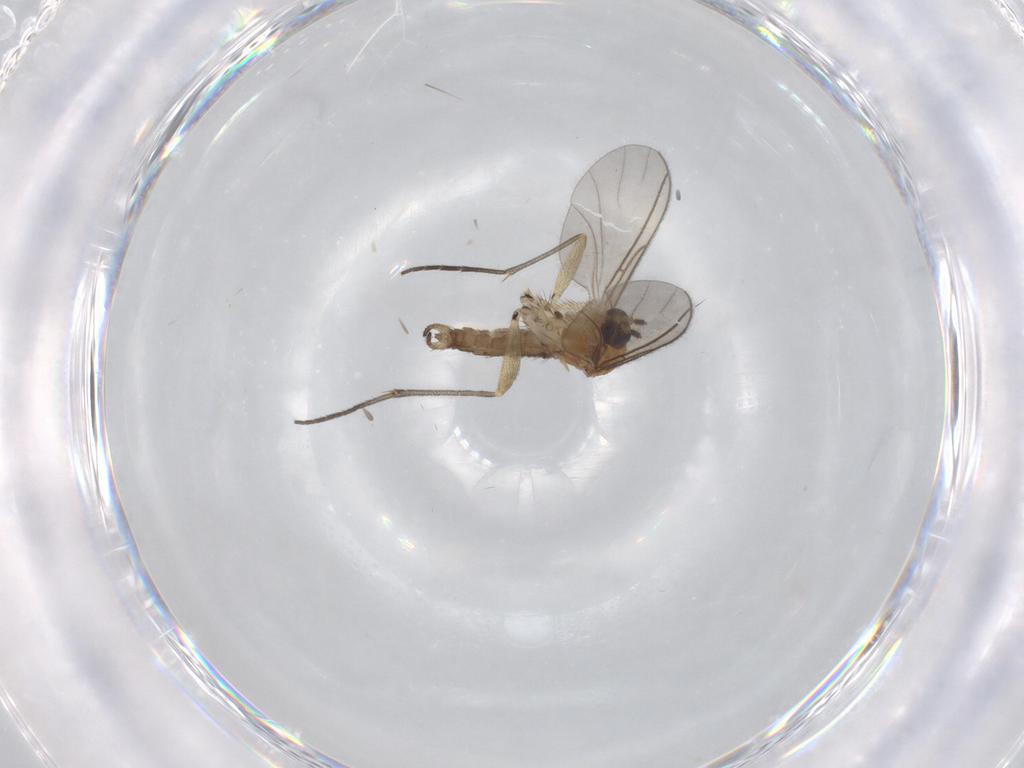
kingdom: Animalia
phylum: Arthropoda
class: Insecta
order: Diptera
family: Sciaridae
